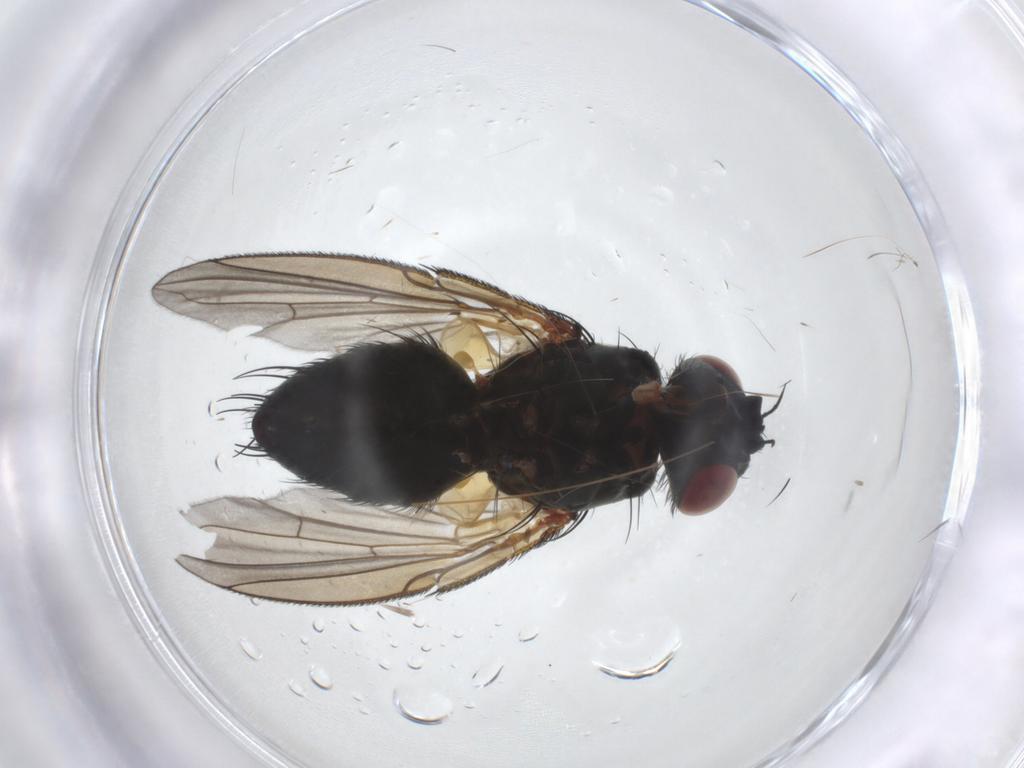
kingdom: Animalia
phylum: Arthropoda
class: Insecta
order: Diptera
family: Tachinidae
